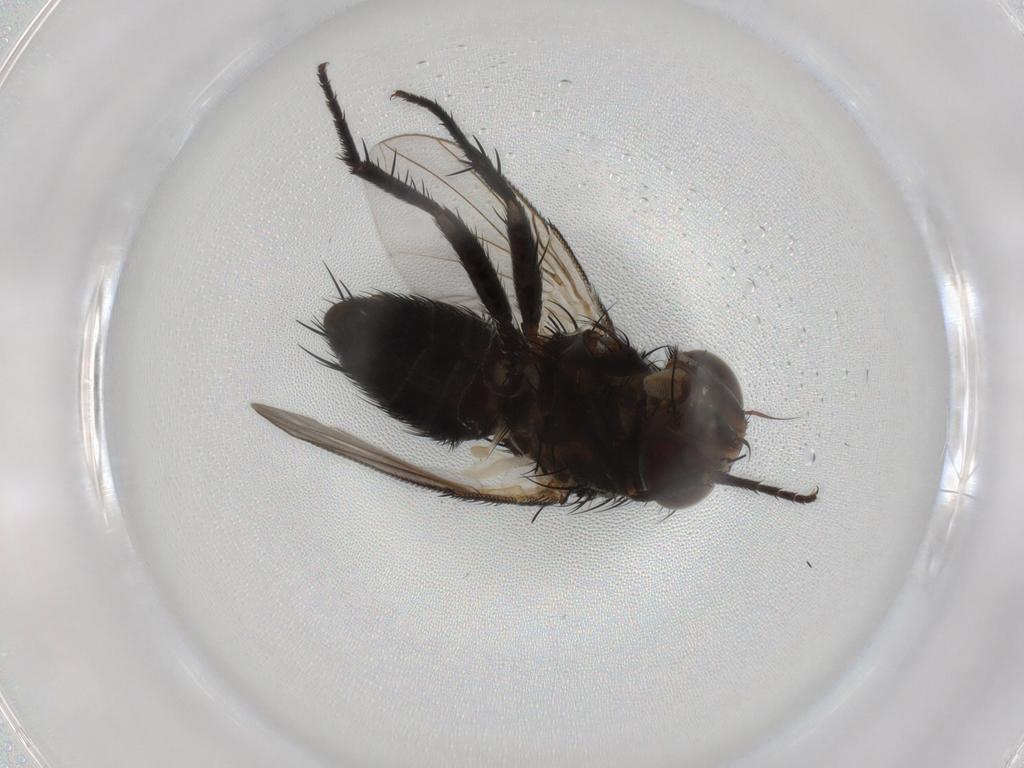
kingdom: Animalia
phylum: Arthropoda
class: Insecta
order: Diptera
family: Tachinidae
